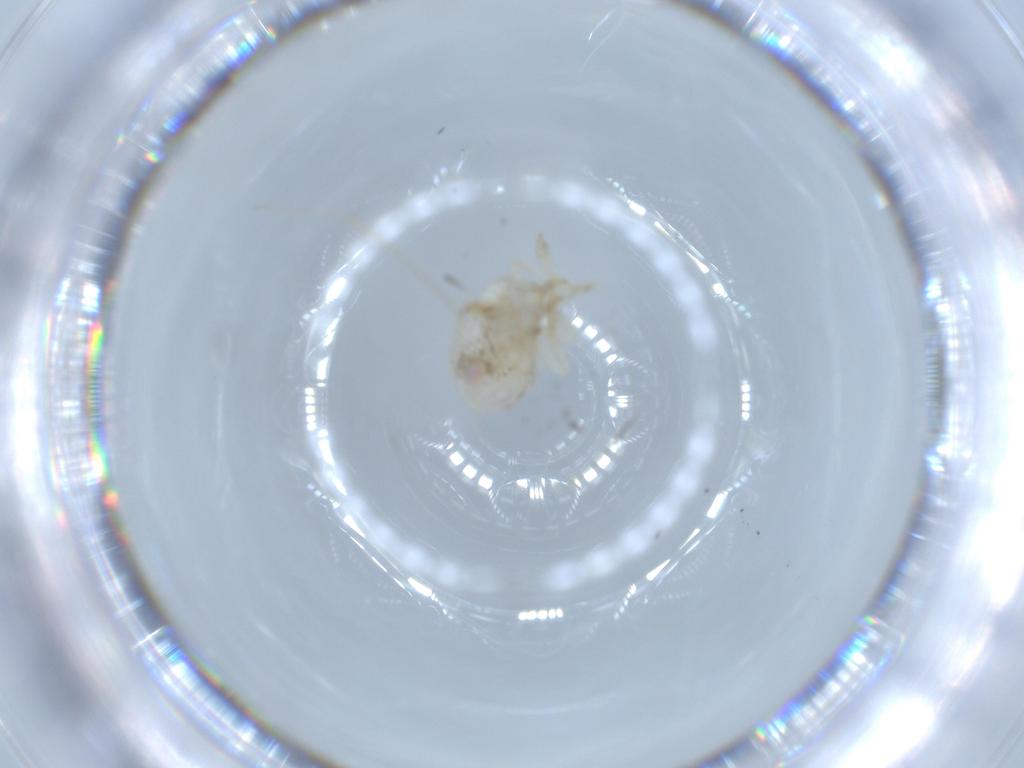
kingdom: Animalia
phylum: Arthropoda
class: Insecta
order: Hemiptera
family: Acanaloniidae
